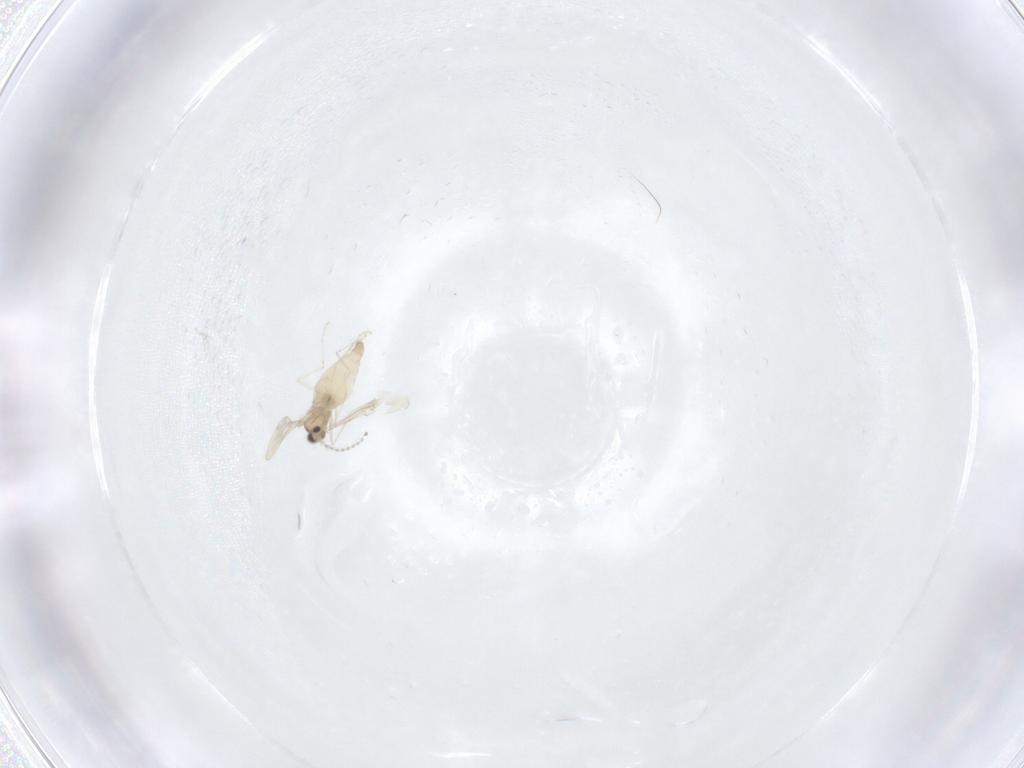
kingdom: Animalia
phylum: Arthropoda
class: Insecta
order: Diptera
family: Cecidomyiidae
